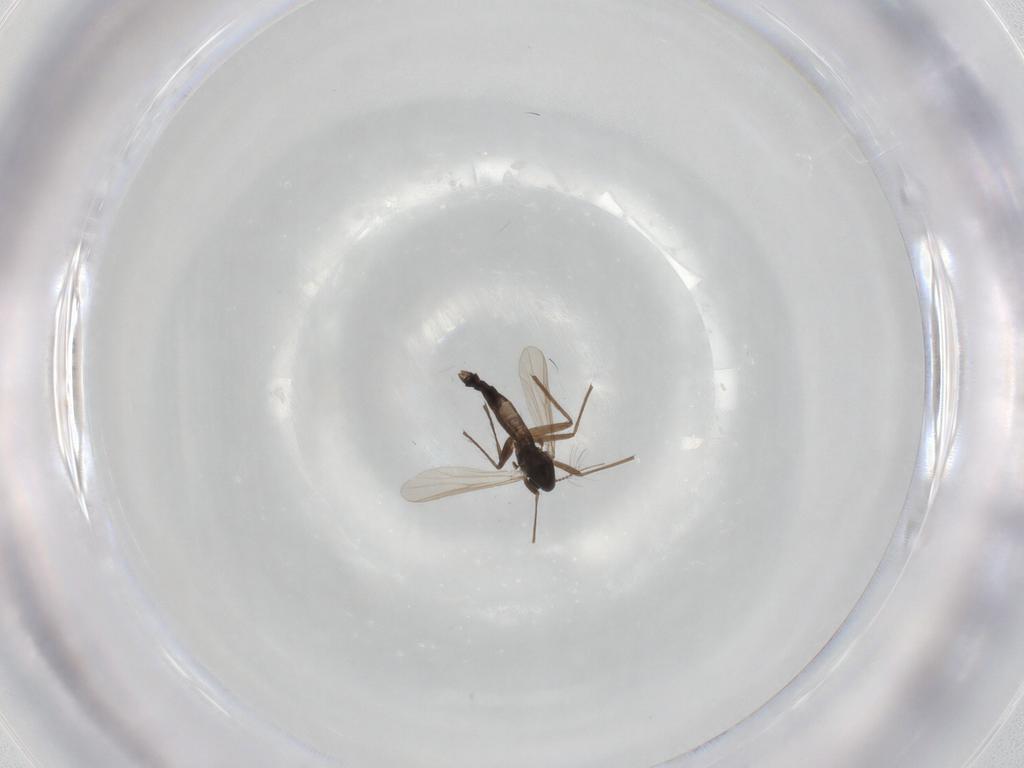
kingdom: Animalia
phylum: Arthropoda
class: Insecta
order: Diptera
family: Chironomidae
